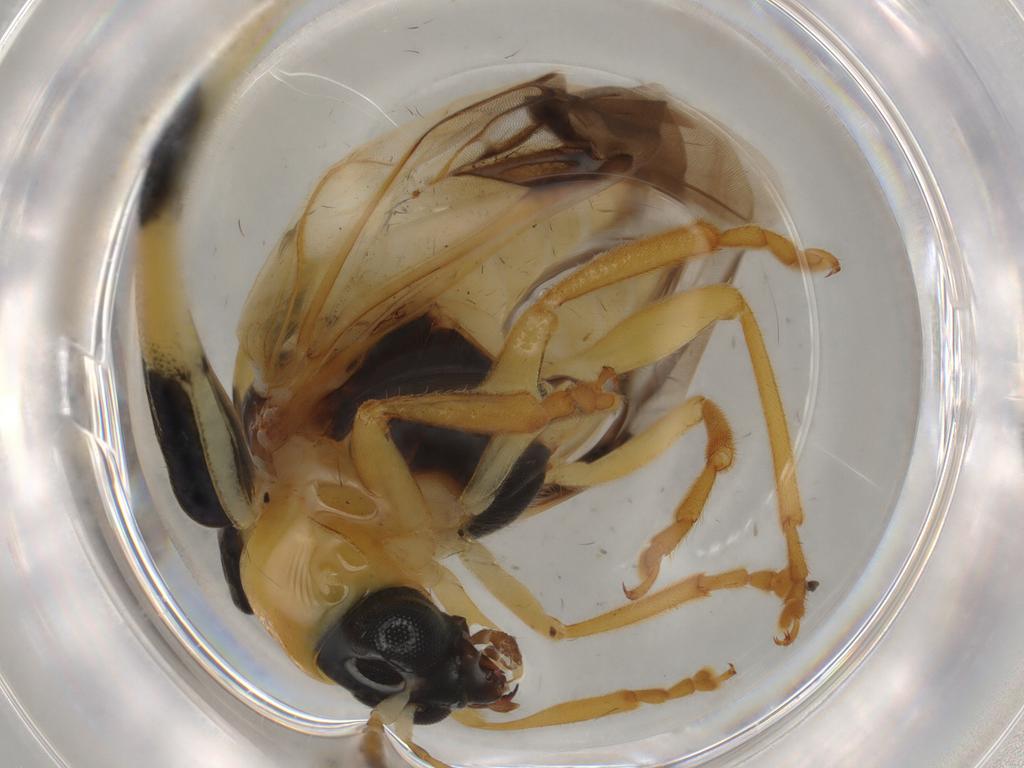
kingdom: Animalia
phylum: Arthropoda
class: Insecta
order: Coleoptera
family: Chrysomelidae
